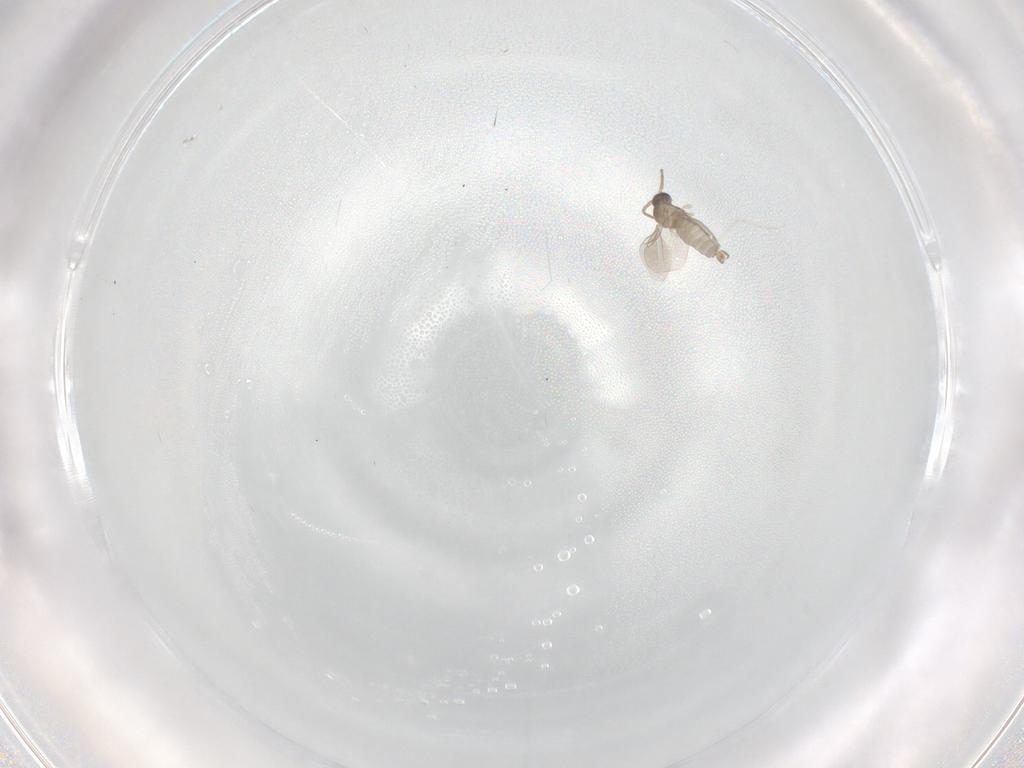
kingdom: Animalia
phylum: Arthropoda
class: Insecta
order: Diptera
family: Cecidomyiidae
